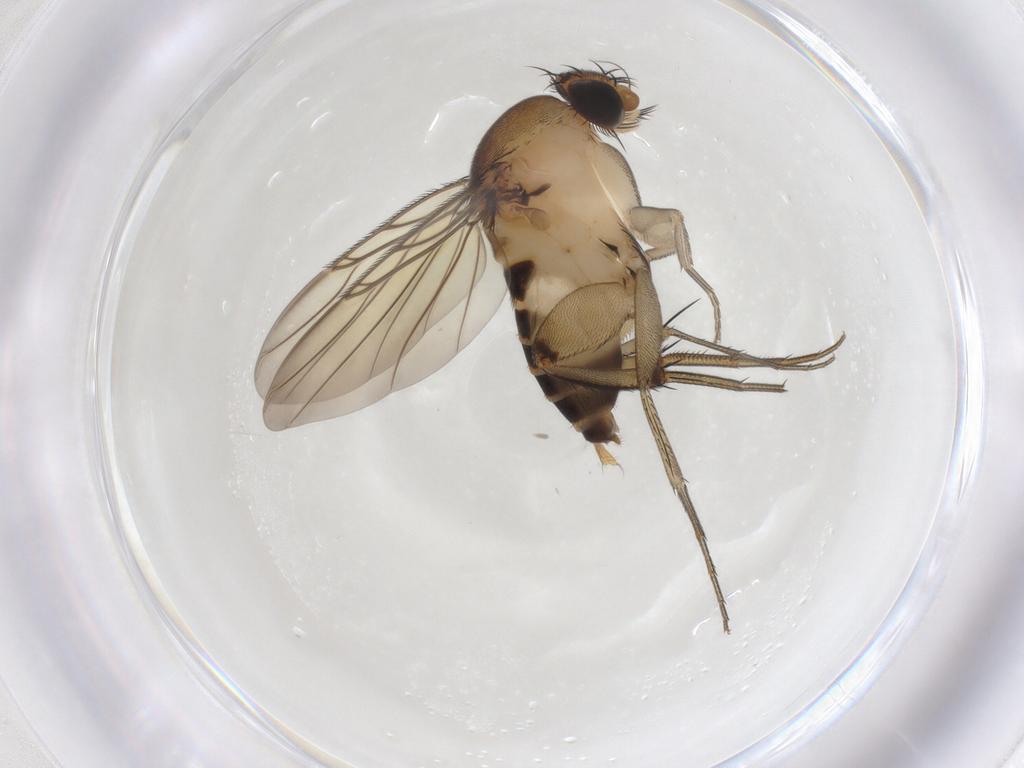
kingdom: Animalia
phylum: Arthropoda
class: Insecta
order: Diptera
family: Phoridae
